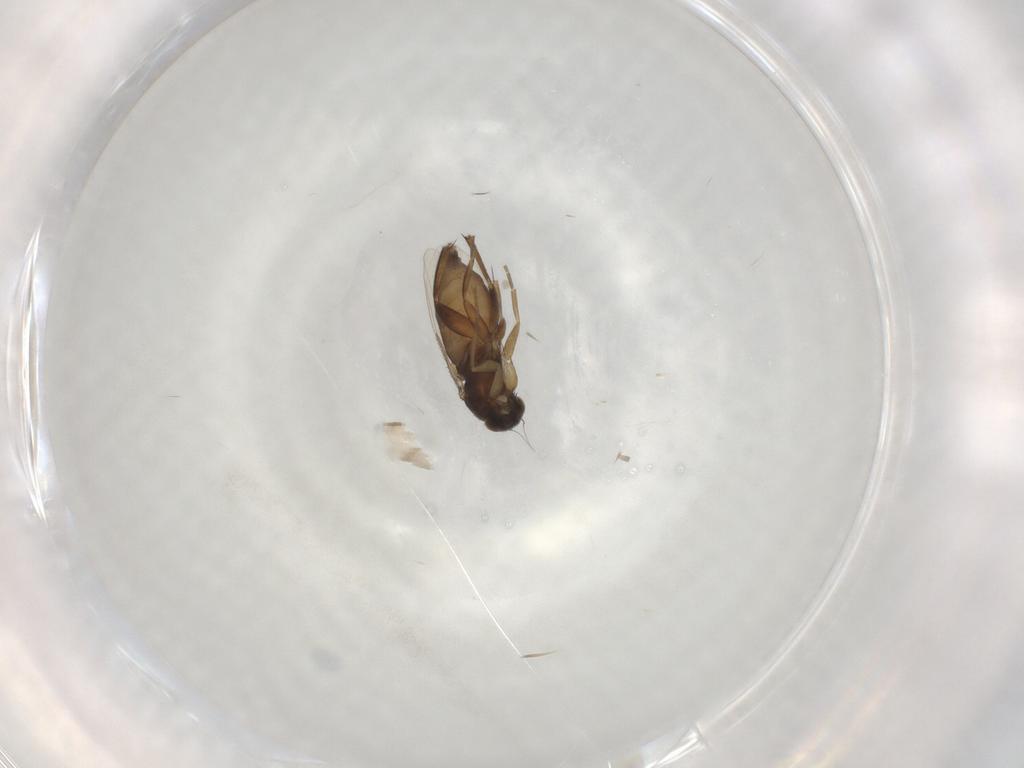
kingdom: Animalia
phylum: Arthropoda
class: Insecta
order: Diptera
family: Phoridae
